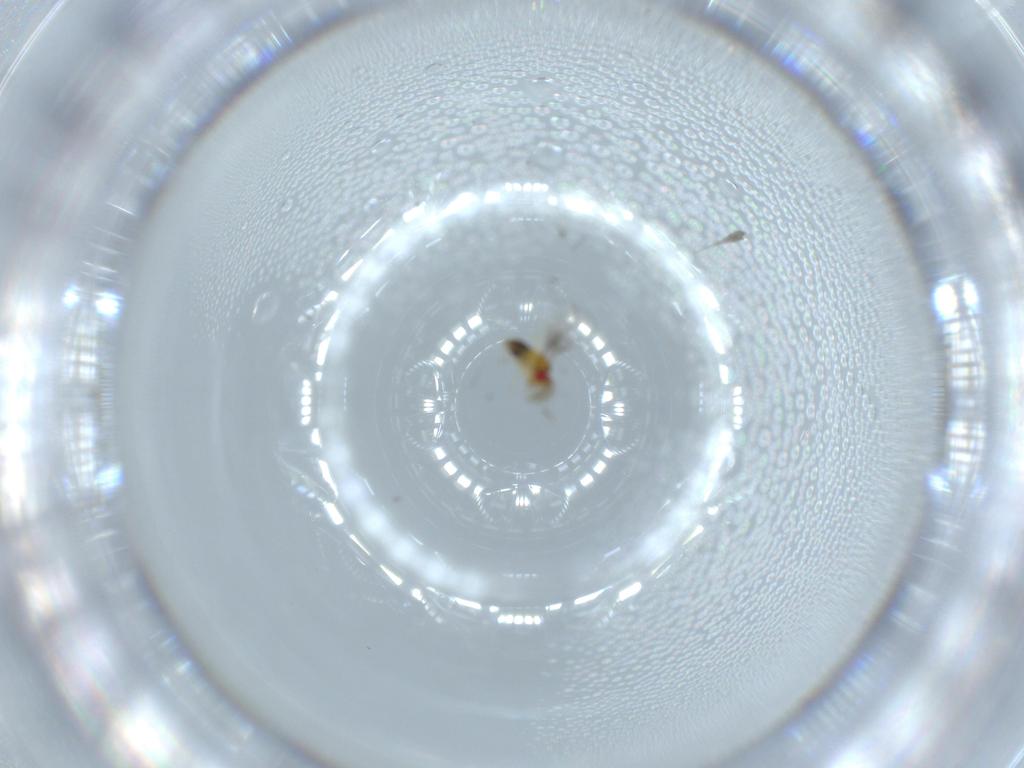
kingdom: Animalia
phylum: Arthropoda
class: Insecta
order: Hymenoptera
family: Trichogrammatidae
